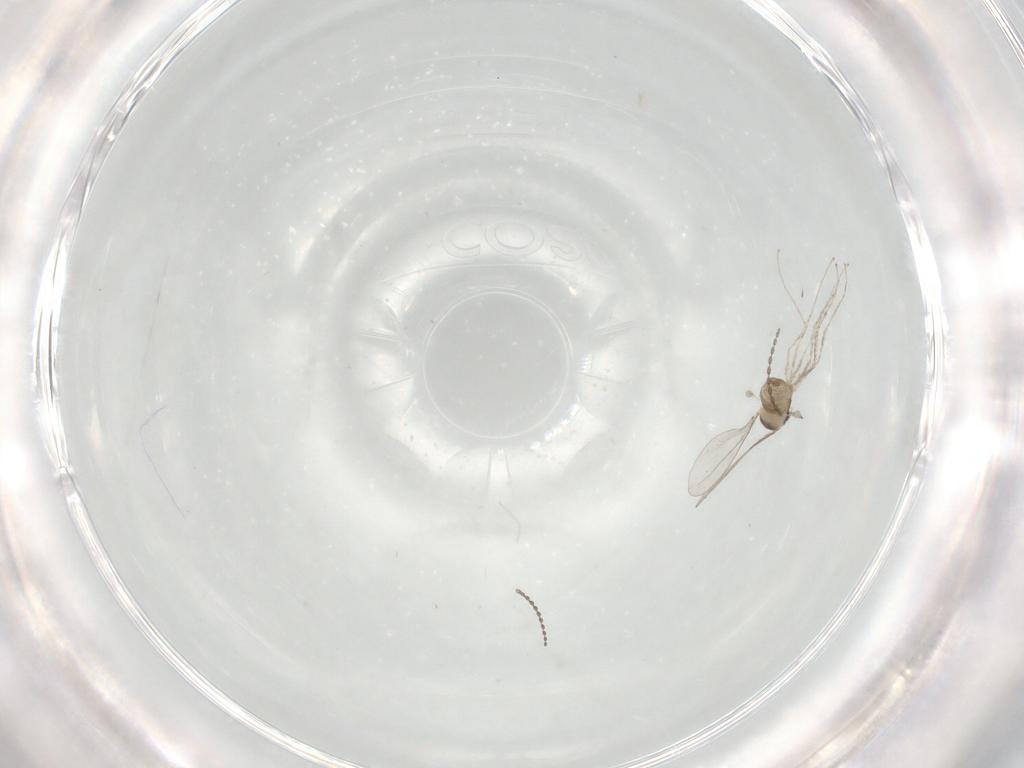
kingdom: Animalia
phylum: Arthropoda
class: Insecta
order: Diptera
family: Cecidomyiidae
